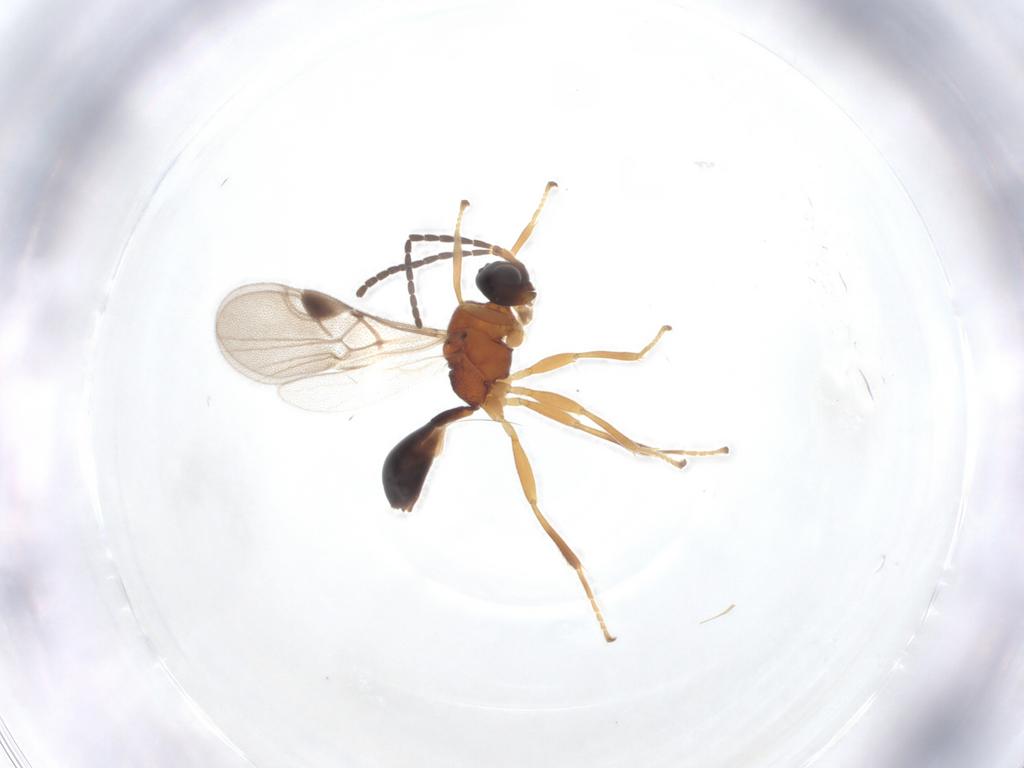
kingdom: Animalia
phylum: Arthropoda
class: Insecta
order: Hymenoptera
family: Braconidae
